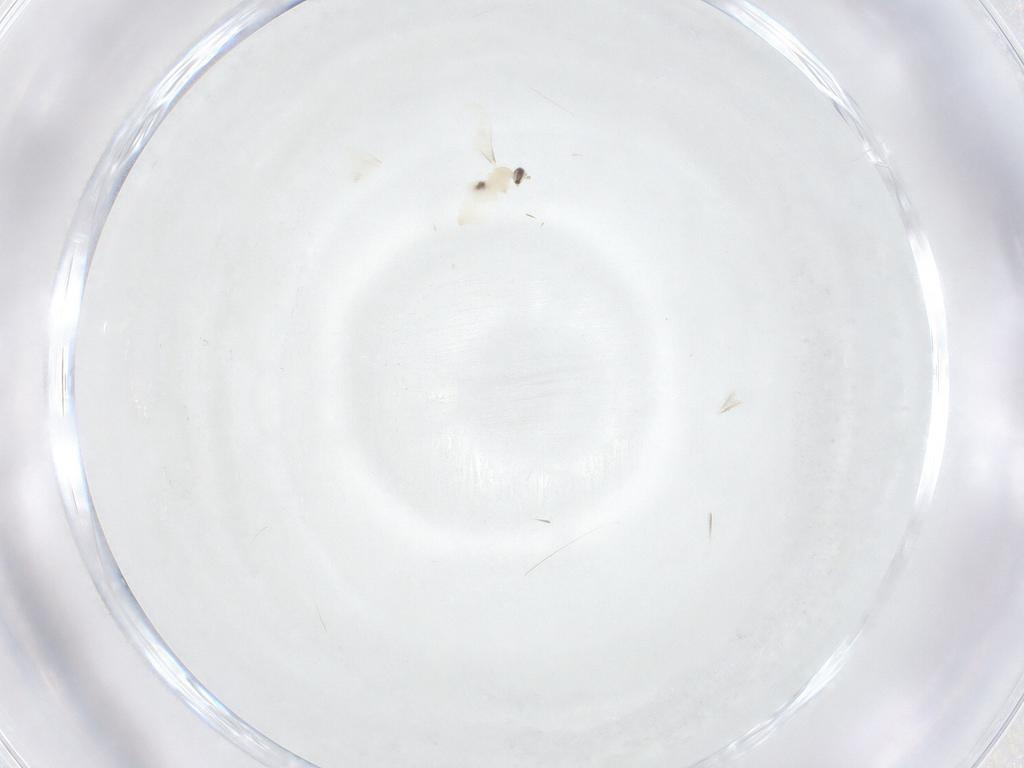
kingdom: Animalia
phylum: Arthropoda
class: Insecta
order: Diptera
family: Cecidomyiidae
